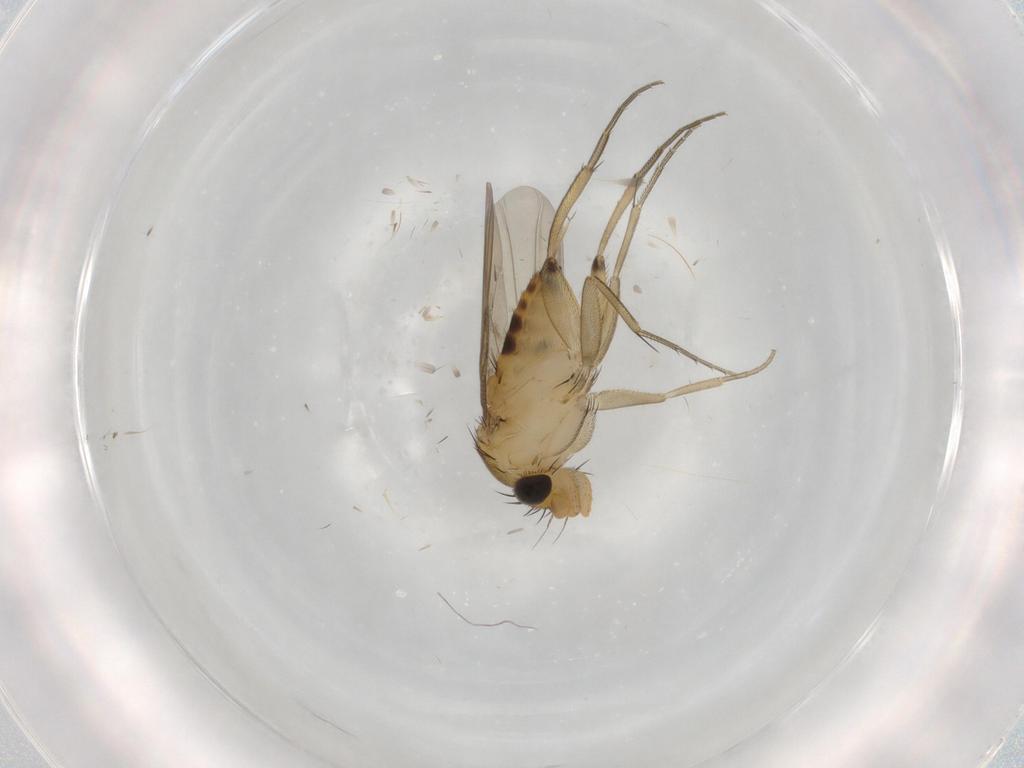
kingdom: Animalia
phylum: Arthropoda
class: Insecta
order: Diptera
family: Phoridae
